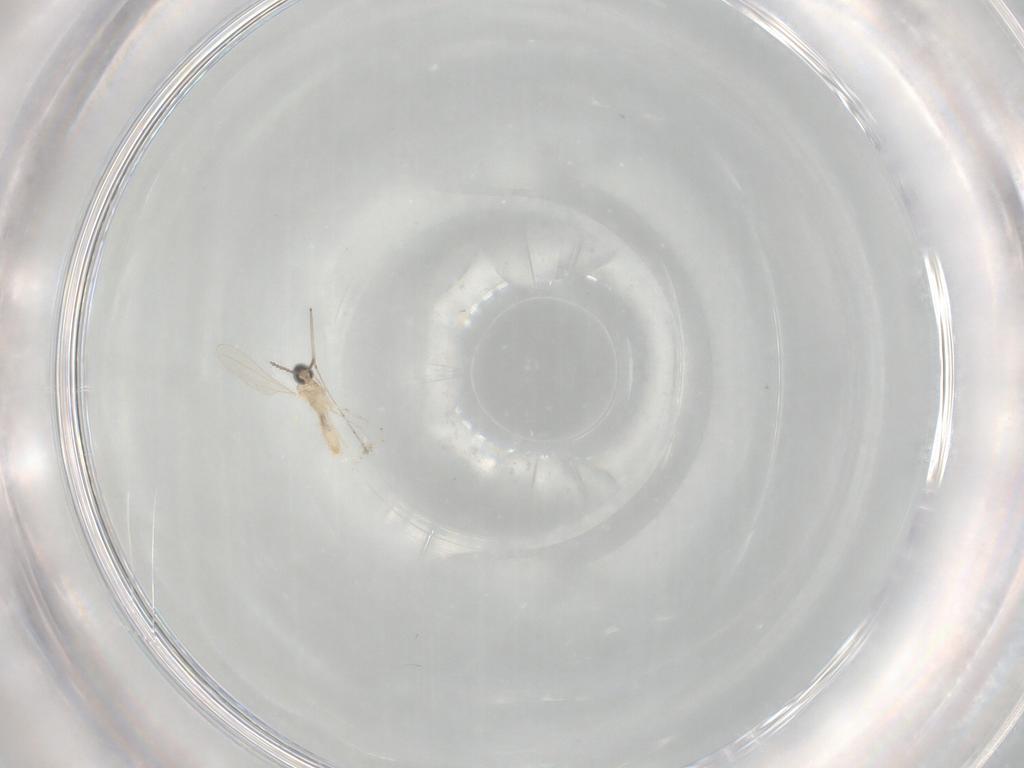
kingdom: Animalia
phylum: Arthropoda
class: Insecta
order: Diptera
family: Cecidomyiidae
